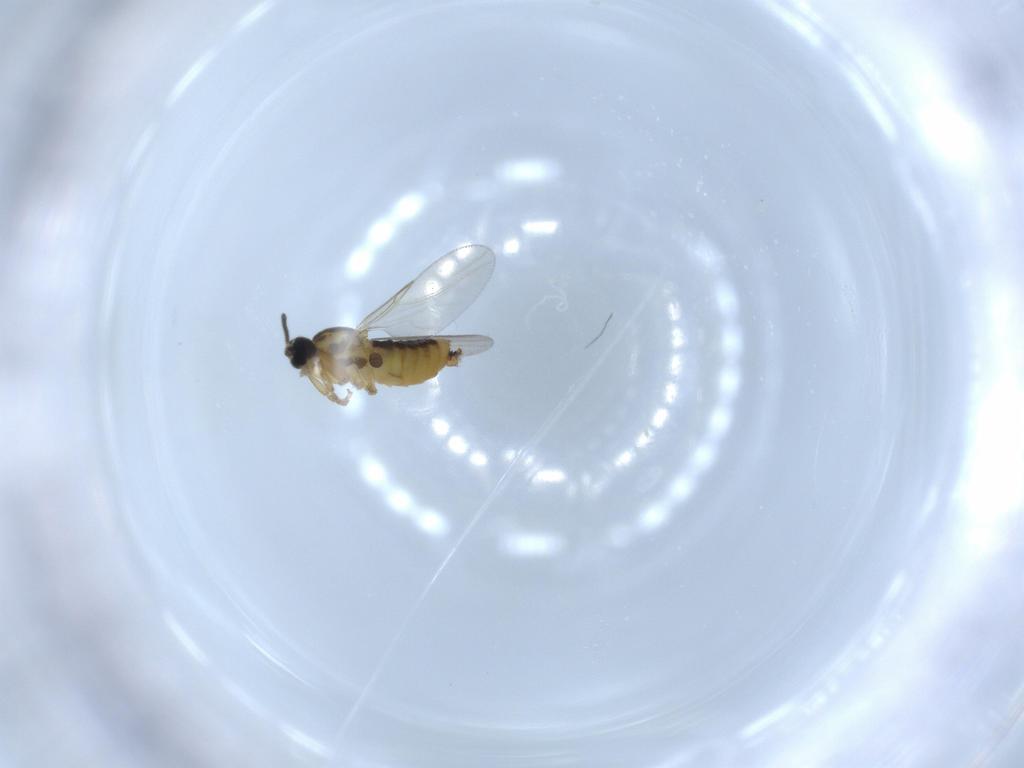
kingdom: Animalia
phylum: Arthropoda
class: Insecta
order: Diptera
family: Scatopsidae
